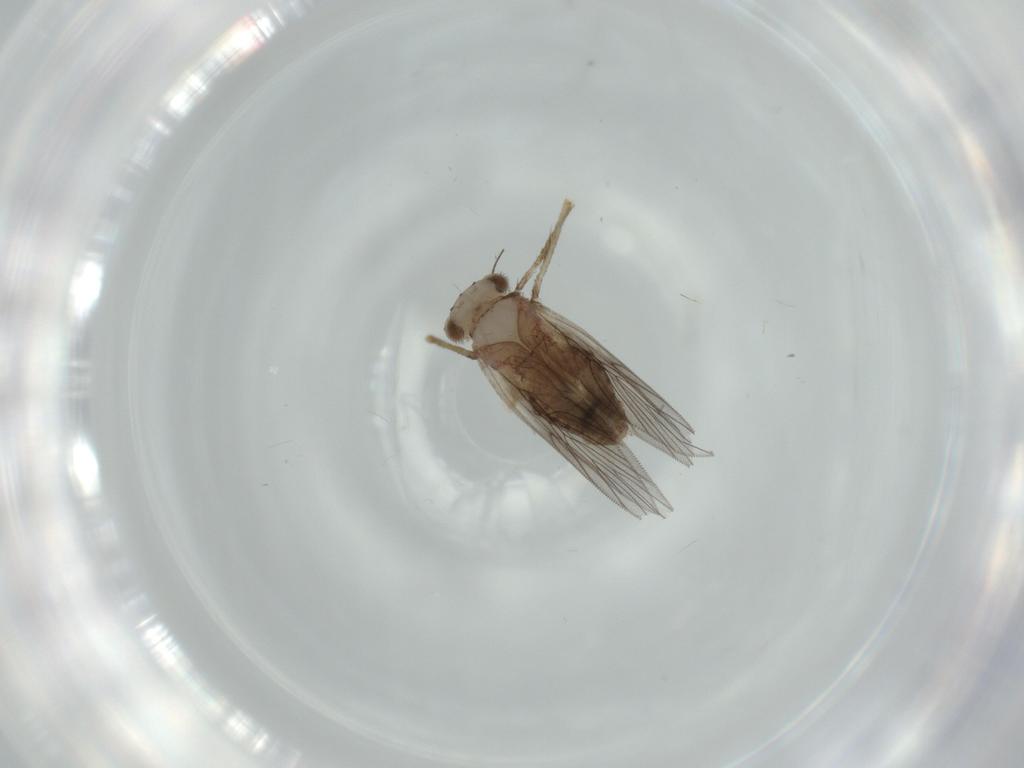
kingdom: Animalia
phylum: Arthropoda
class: Insecta
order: Psocodea
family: Lepidopsocidae
